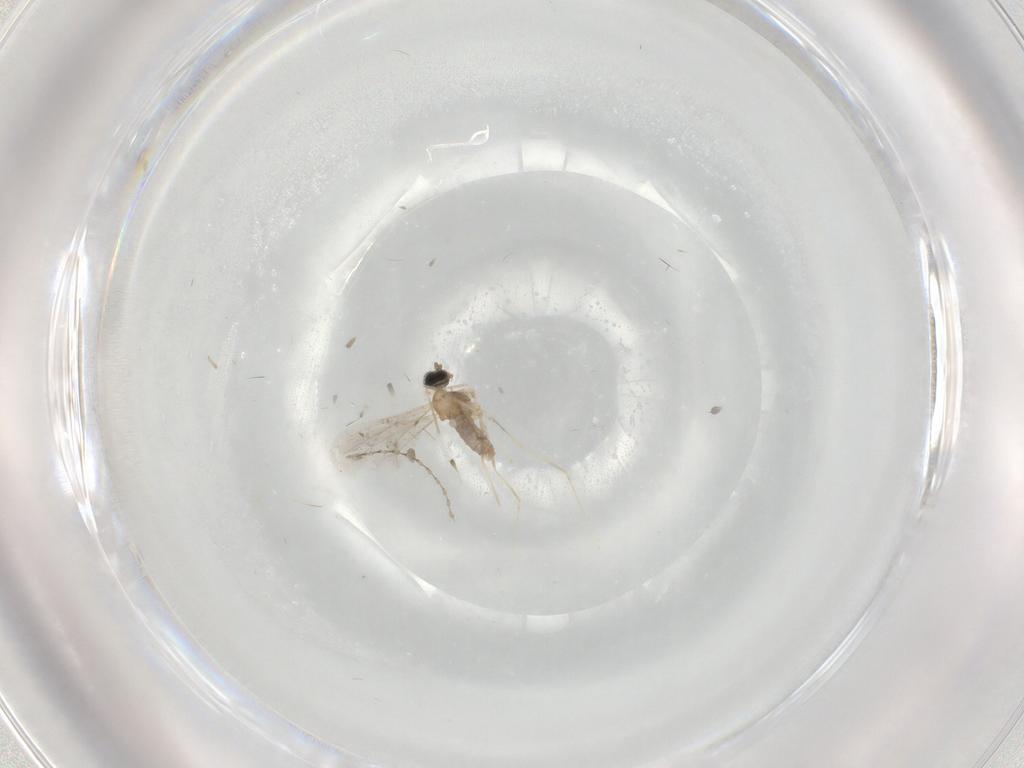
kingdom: Animalia
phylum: Arthropoda
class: Insecta
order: Diptera
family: Cecidomyiidae
